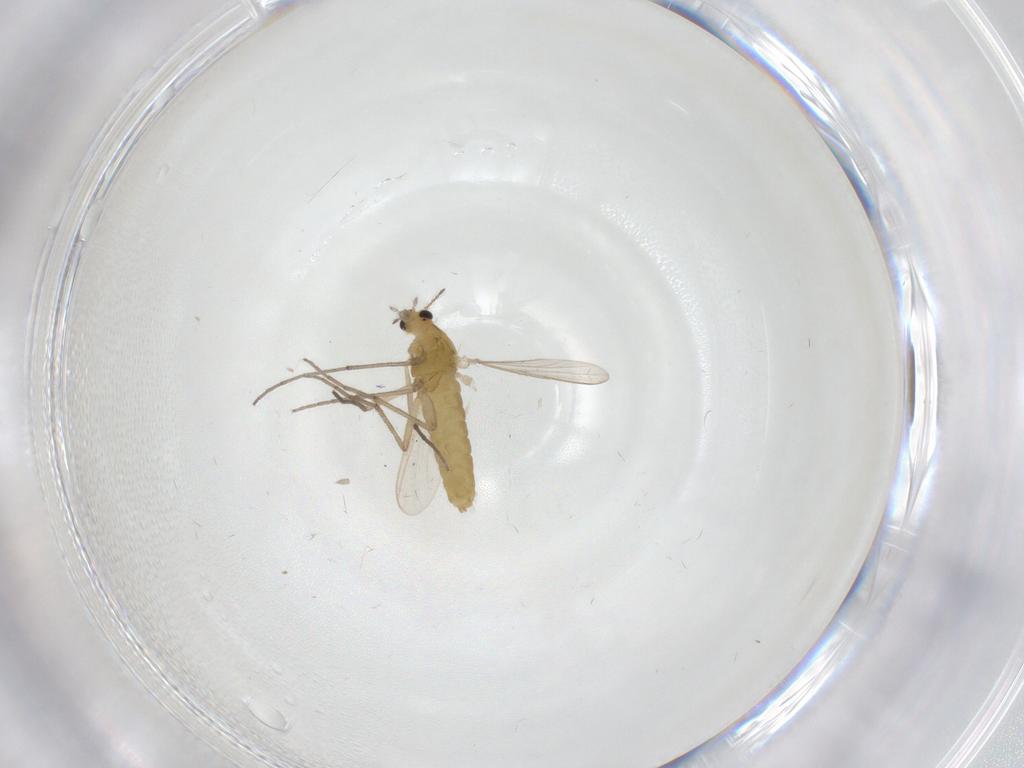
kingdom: Animalia
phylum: Arthropoda
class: Insecta
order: Diptera
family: Chironomidae
